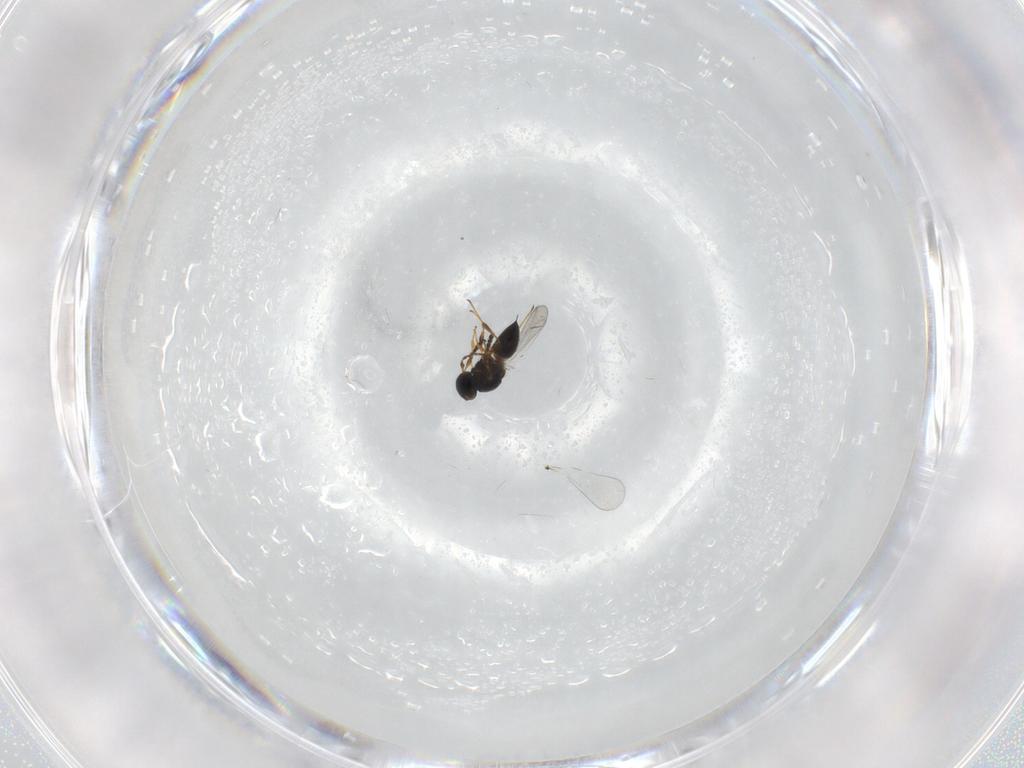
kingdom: Animalia
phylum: Arthropoda
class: Insecta
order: Hymenoptera
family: Platygastridae
